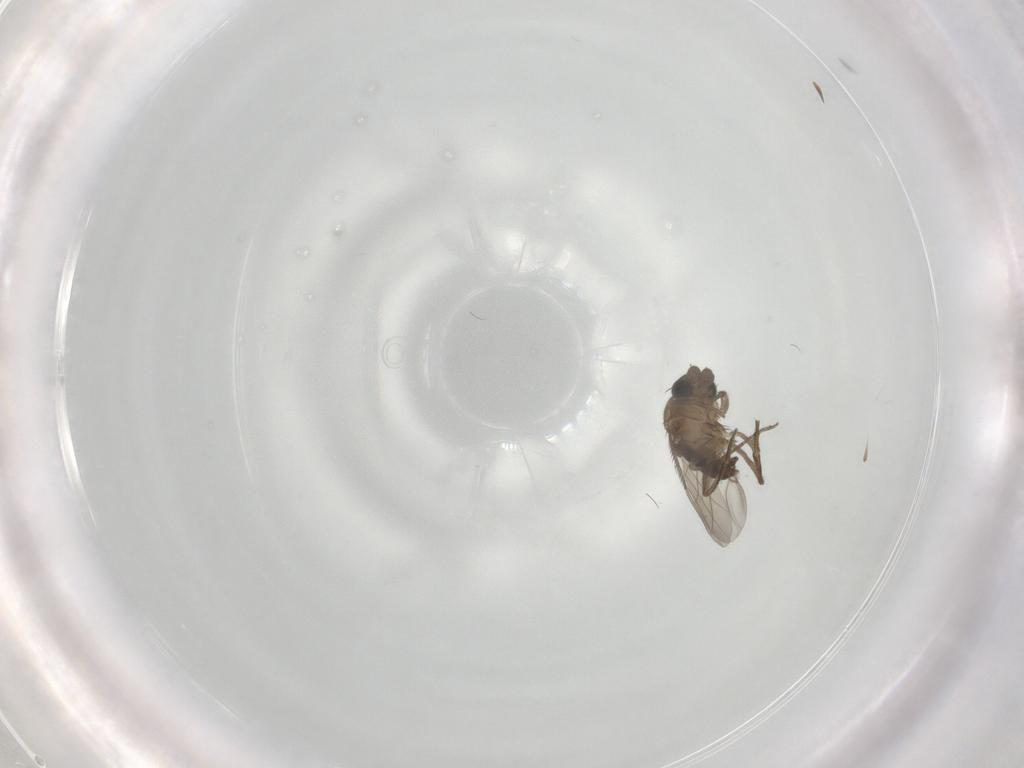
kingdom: Animalia
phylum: Arthropoda
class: Insecta
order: Diptera
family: Phoridae
